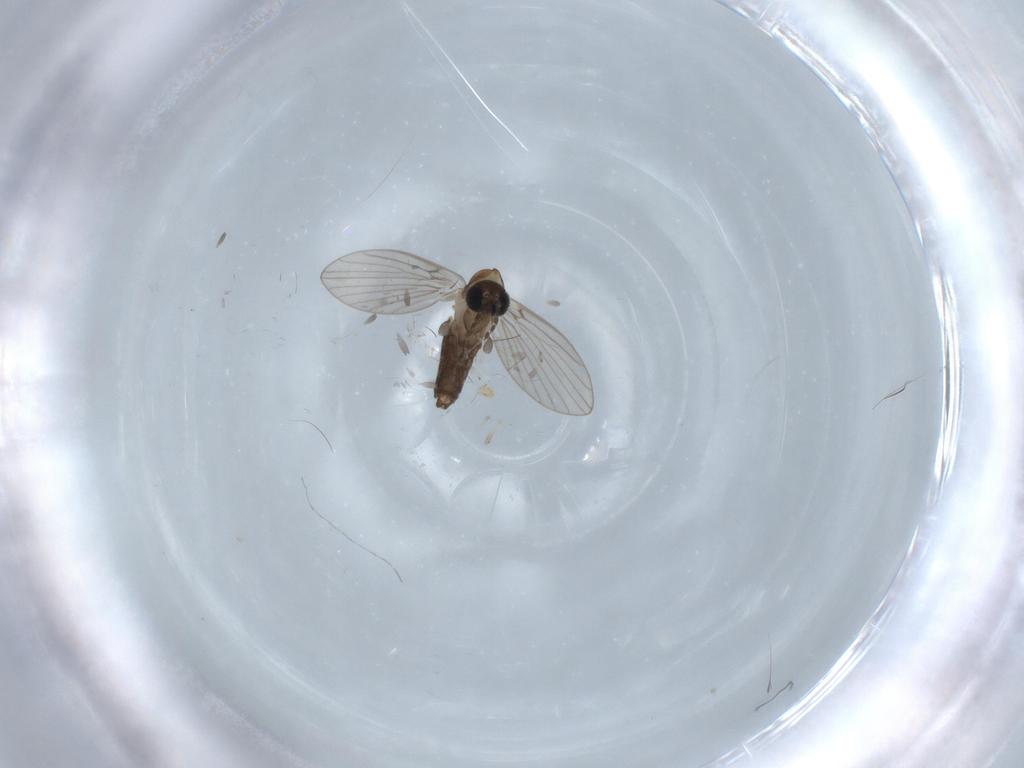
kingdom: Animalia
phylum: Arthropoda
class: Insecta
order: Diptera
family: Tabanidae
